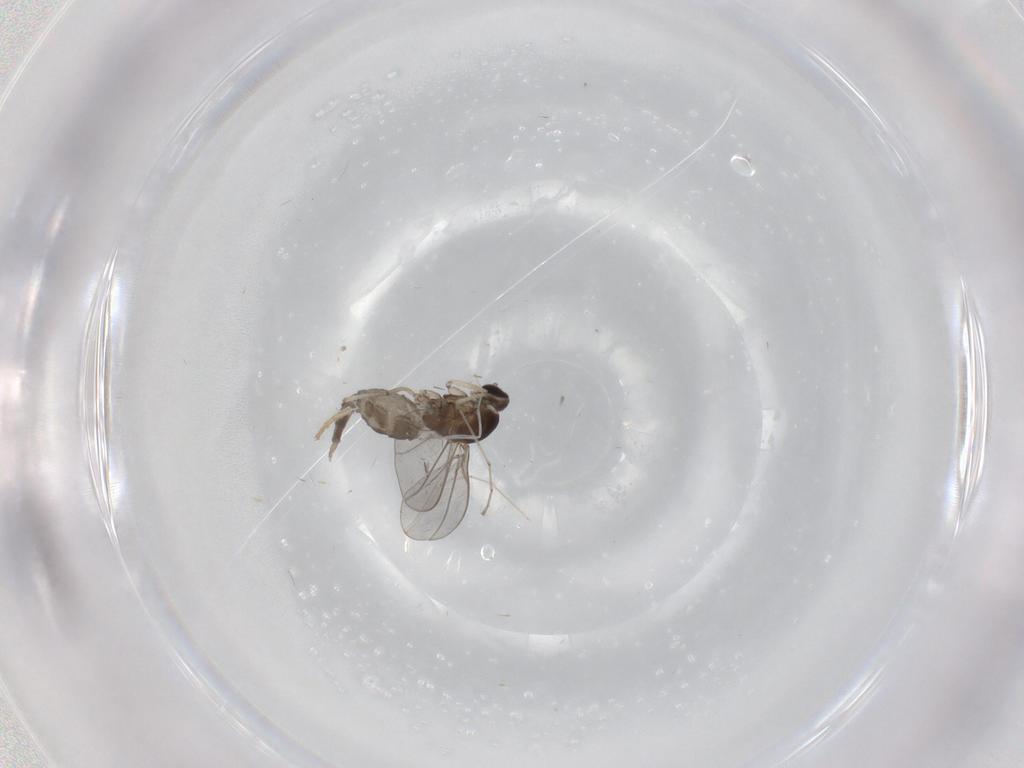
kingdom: Animalia
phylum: Arthropoda
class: Insecta
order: Diptera
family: Cecidomyiidae
